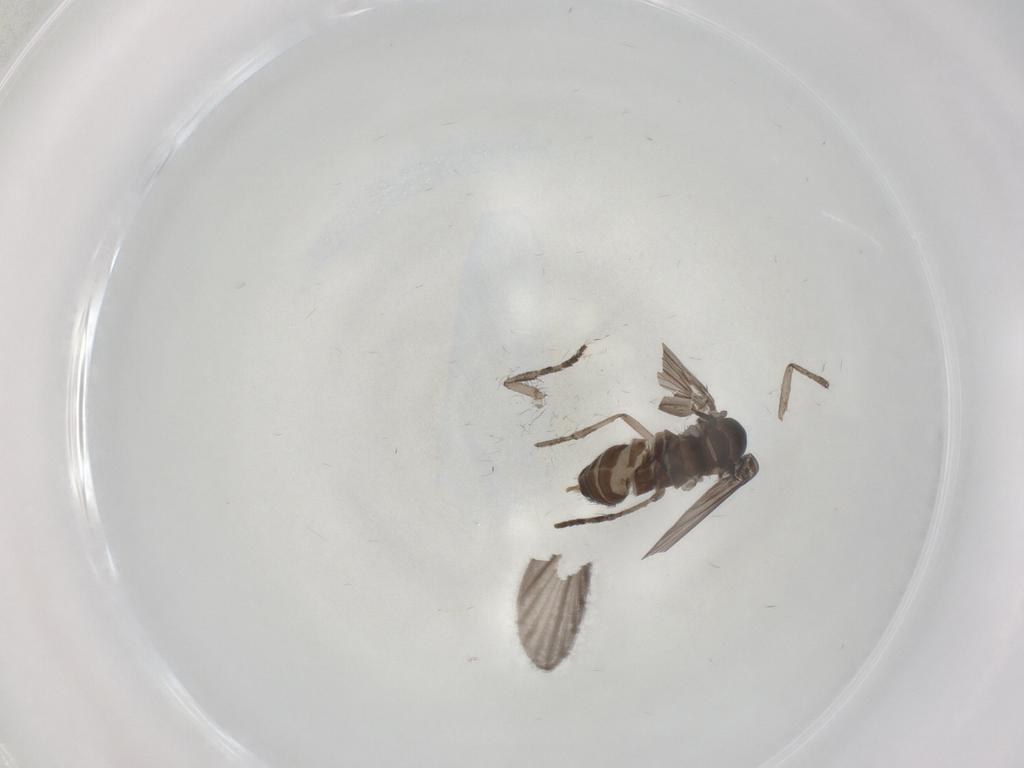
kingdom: Animalia
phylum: Arthropoda
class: Insecta
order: Diptera
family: Psychodidae
